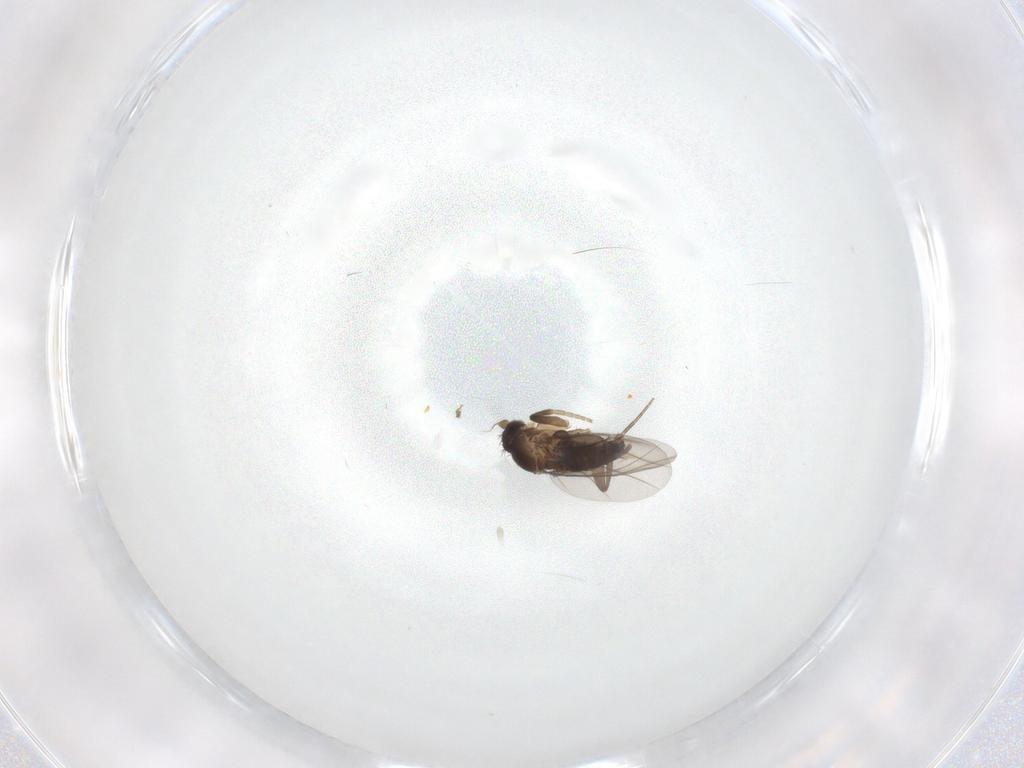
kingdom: Animalia
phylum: Arthropoda
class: Insecta
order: Diptera
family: Phoridae
